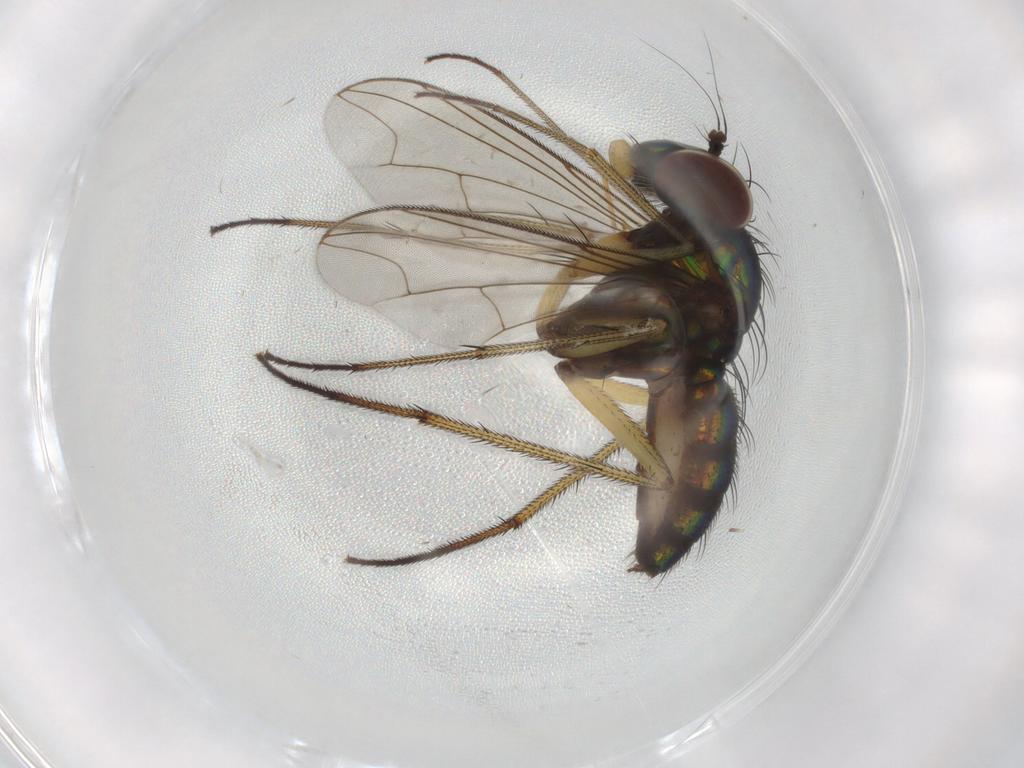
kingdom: Animalia
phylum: Arthropoda
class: Insecta
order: Diptera
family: Dolichopodidae
